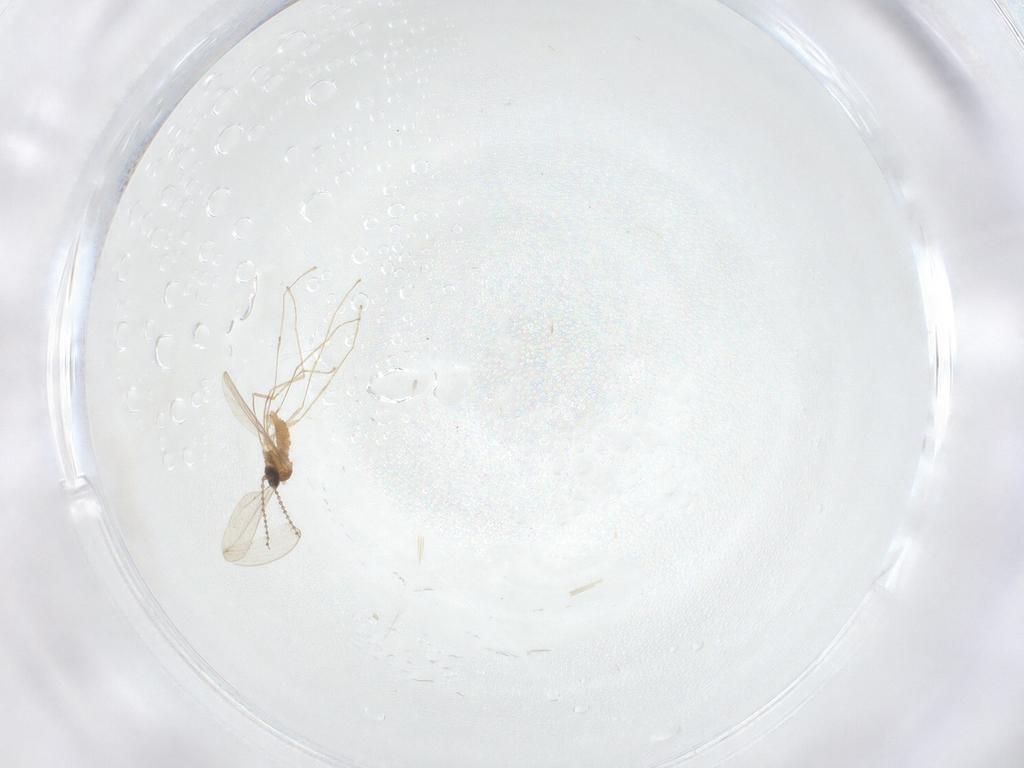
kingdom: Animalia
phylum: Arthropoda
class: Insecta
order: Diptera
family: Cecidomyiidae
